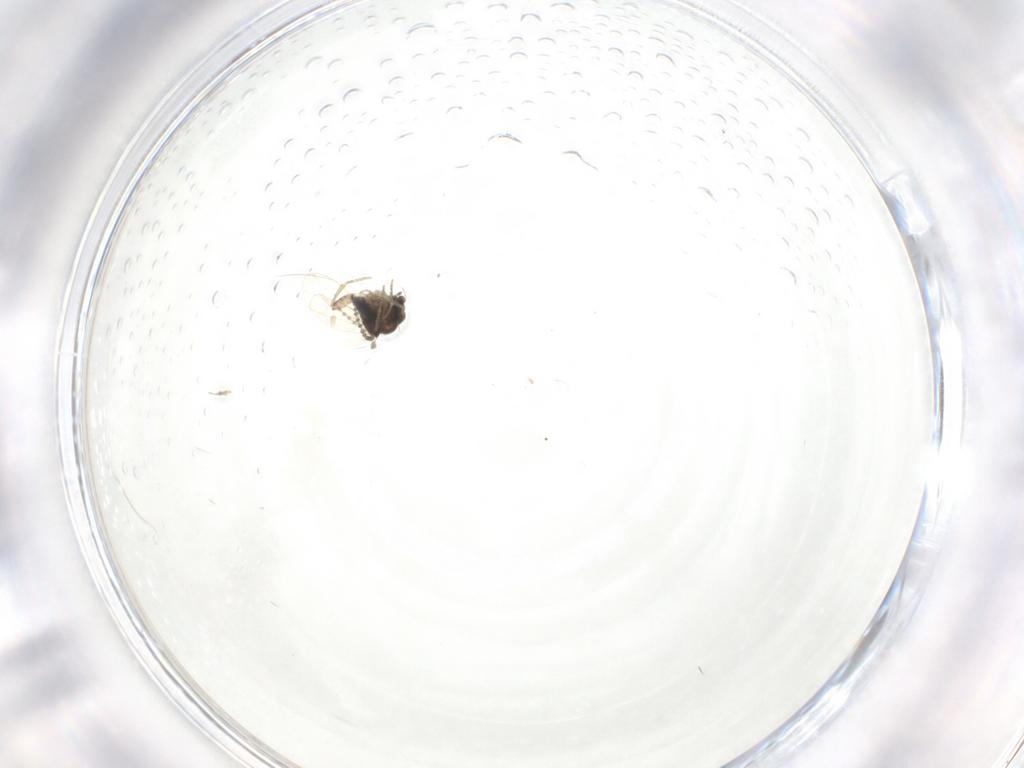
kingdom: Animalia
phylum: Arthropoda
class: Insecta
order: Diptera
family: Phoridae
